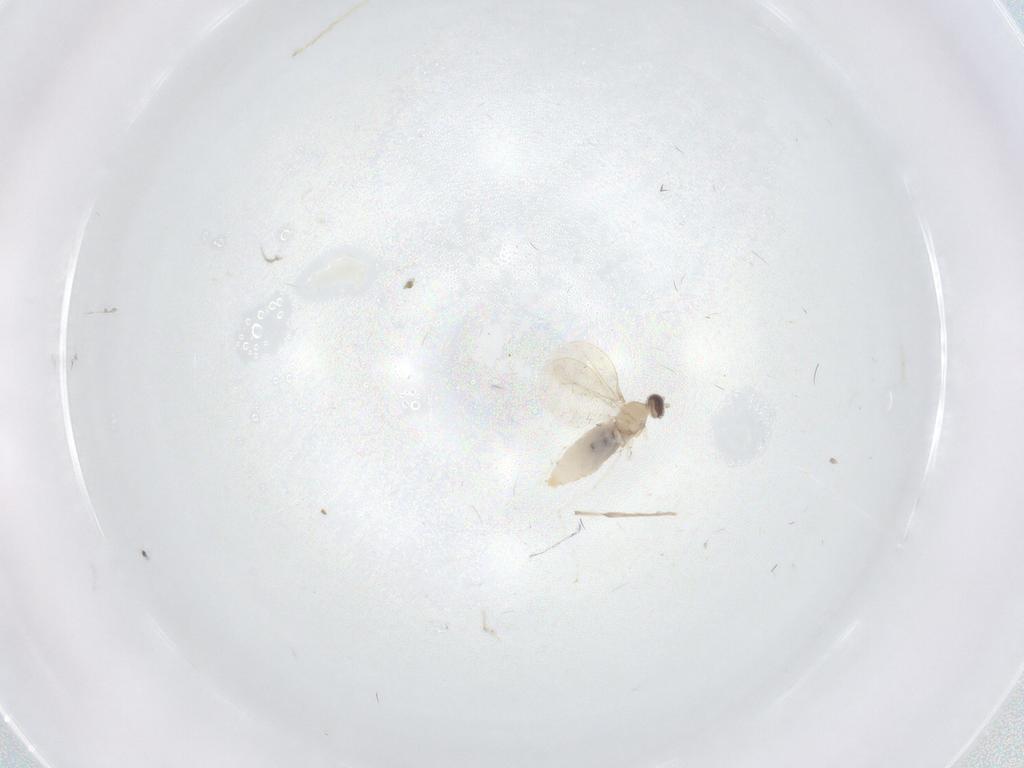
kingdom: Animalia
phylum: Arthropoda
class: Insecta
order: Diptera
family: Chironomidae
